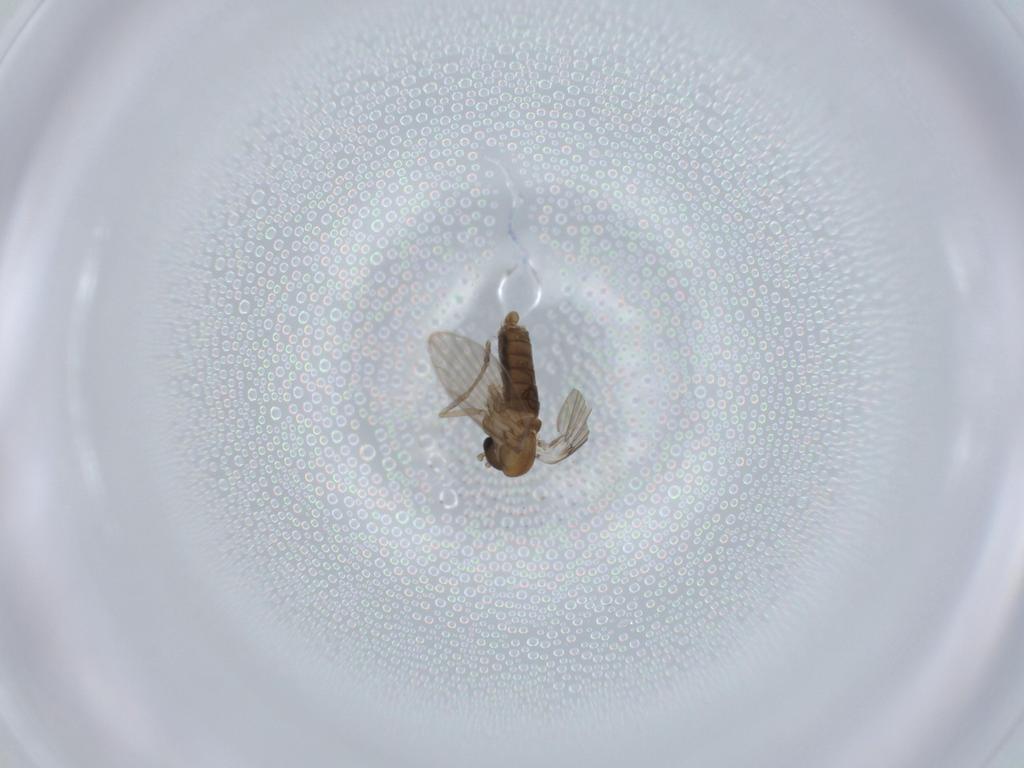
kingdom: Animalia
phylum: Arthropoda
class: Insecta
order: Diptera
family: Psychodidae
